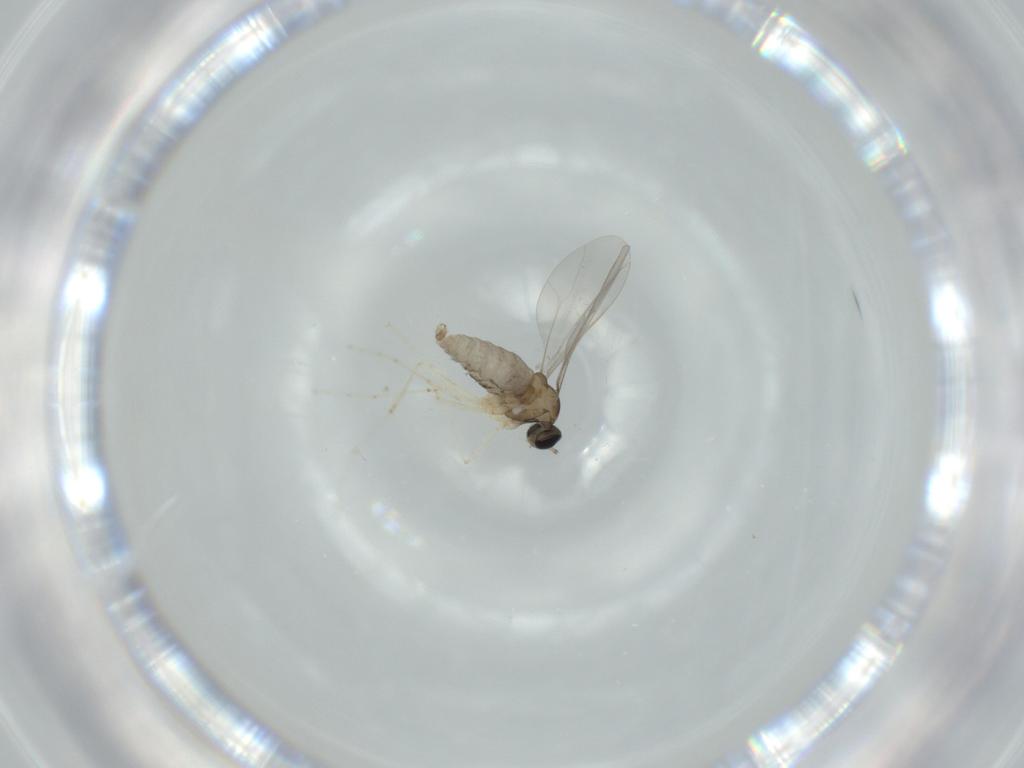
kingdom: Animalia
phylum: Arthropoda
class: Insecta
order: Diptera
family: Cecidomyiidae
